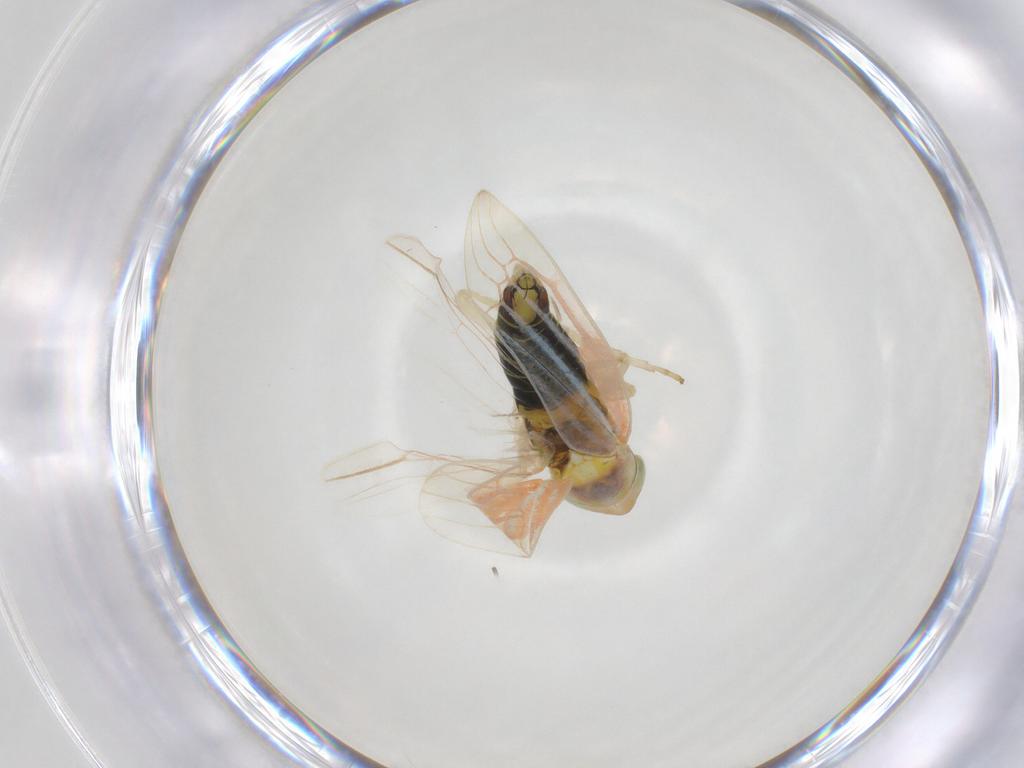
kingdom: Animalia
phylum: Arthropoda
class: Insecta
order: Hemiptera
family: Cicadellidae
